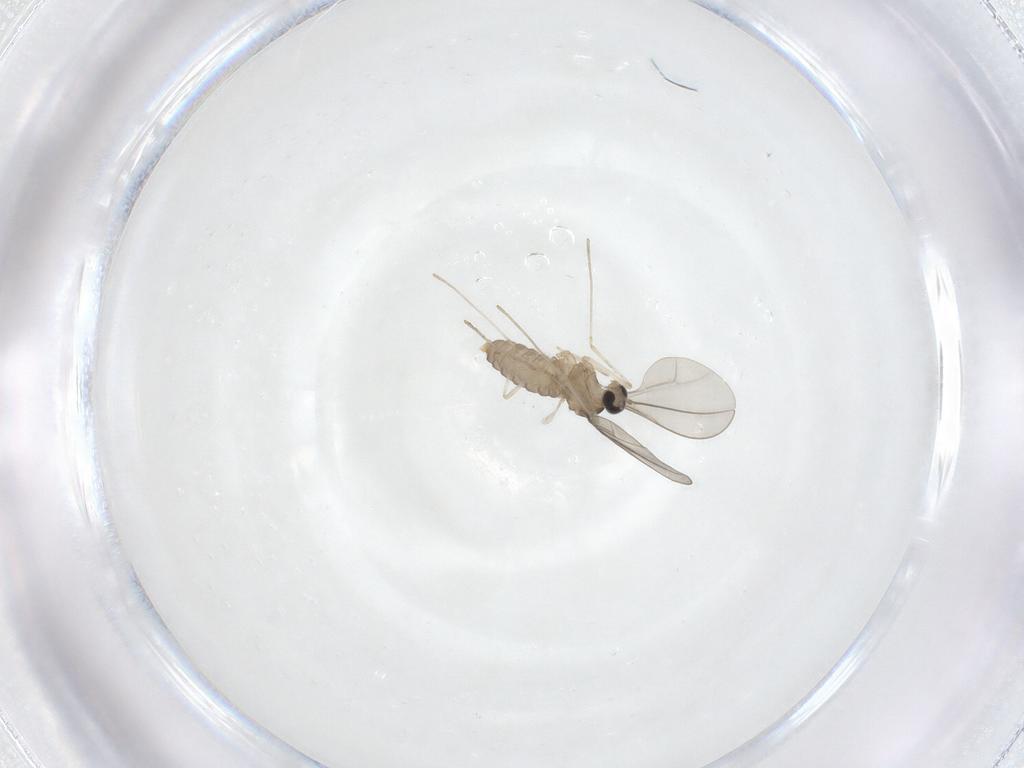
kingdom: Animalia
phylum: Arthropoda
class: Insecta
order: Diptera
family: Cecidomyiidae
